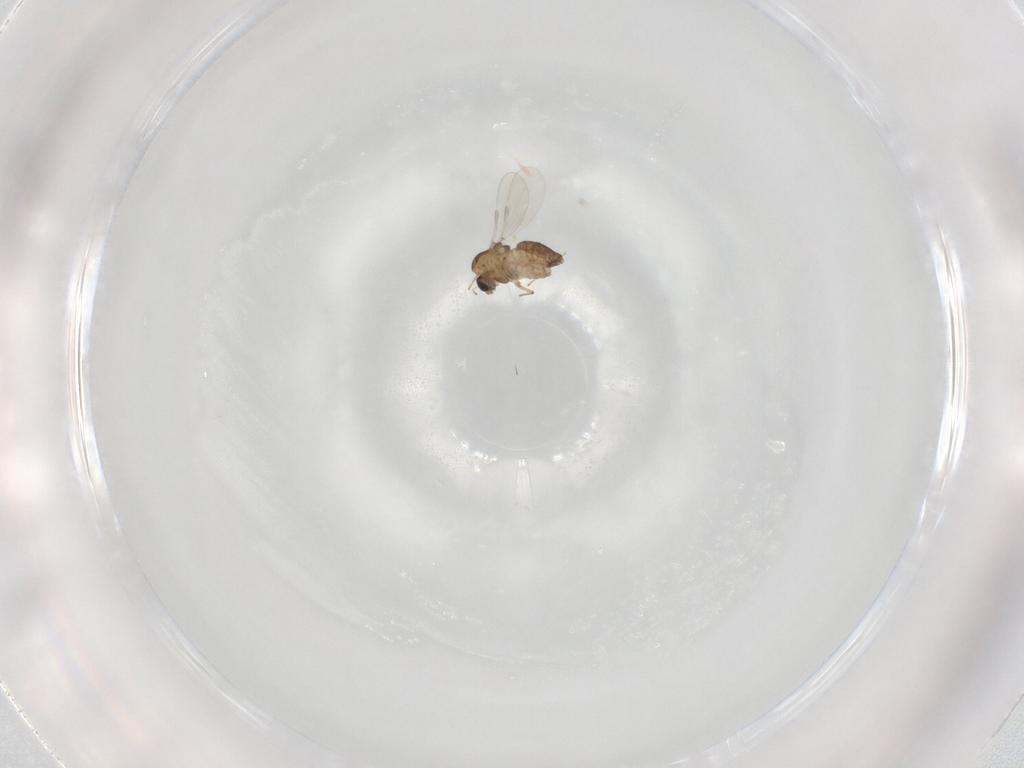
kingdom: Animalia
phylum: Arthropoda
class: Insecta
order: Diptera
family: Chironomidae
